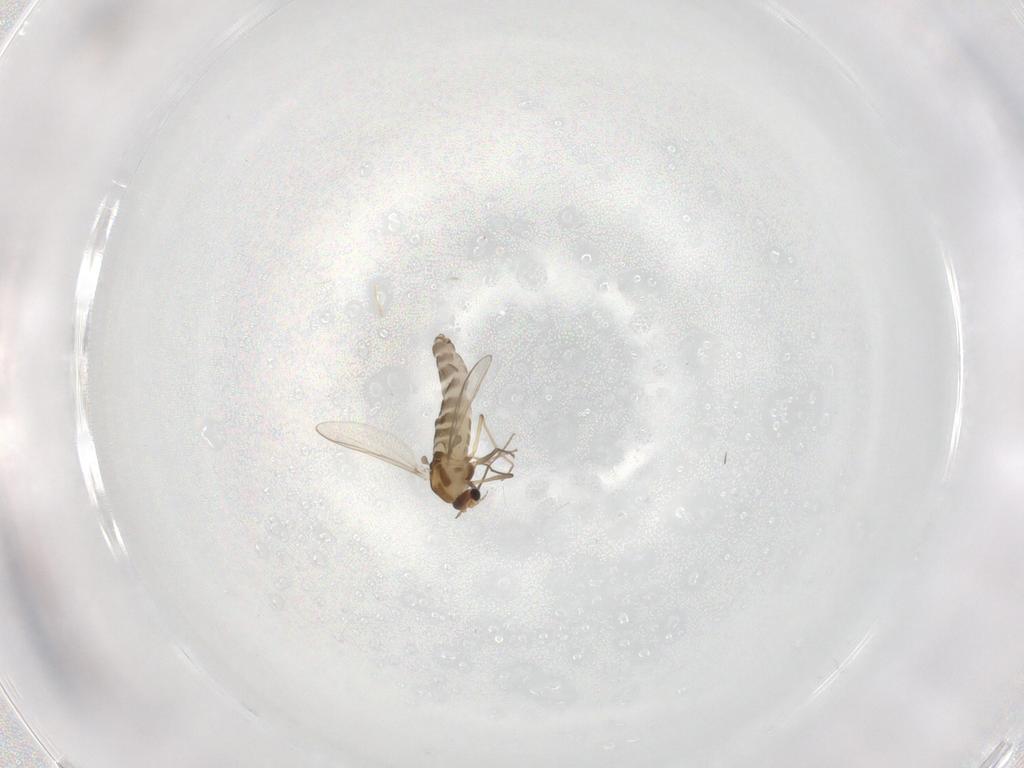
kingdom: Animalia
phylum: Arthropoda
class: Insecta
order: Diptera
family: Chironomidae
